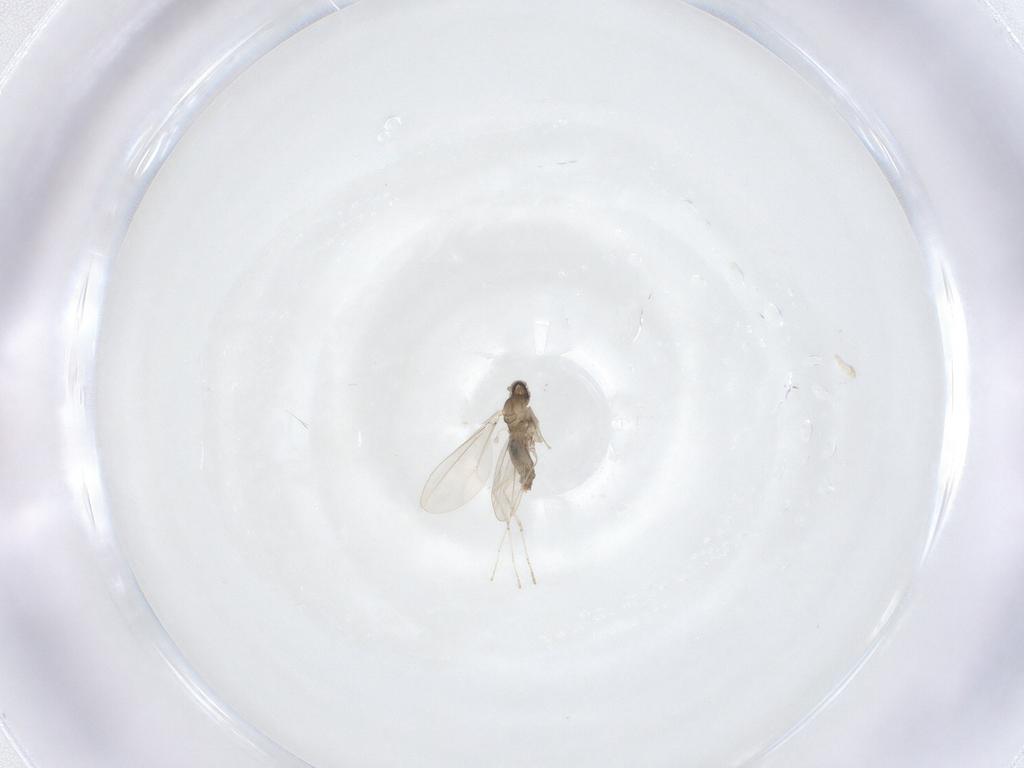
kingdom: Animalia
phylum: Arthropoda
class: Insecta
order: Diptera
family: Cecidomyiidae
